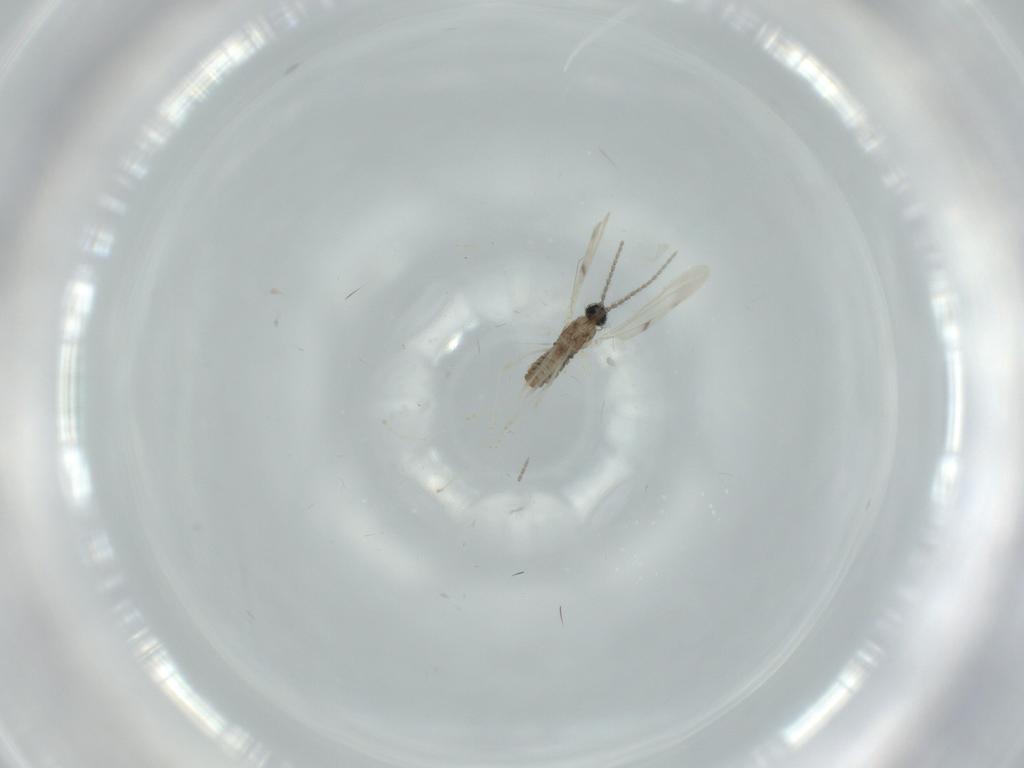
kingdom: Animalia
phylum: Arthropoda
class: Insecta
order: Diptera
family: Cecidomyiidae
